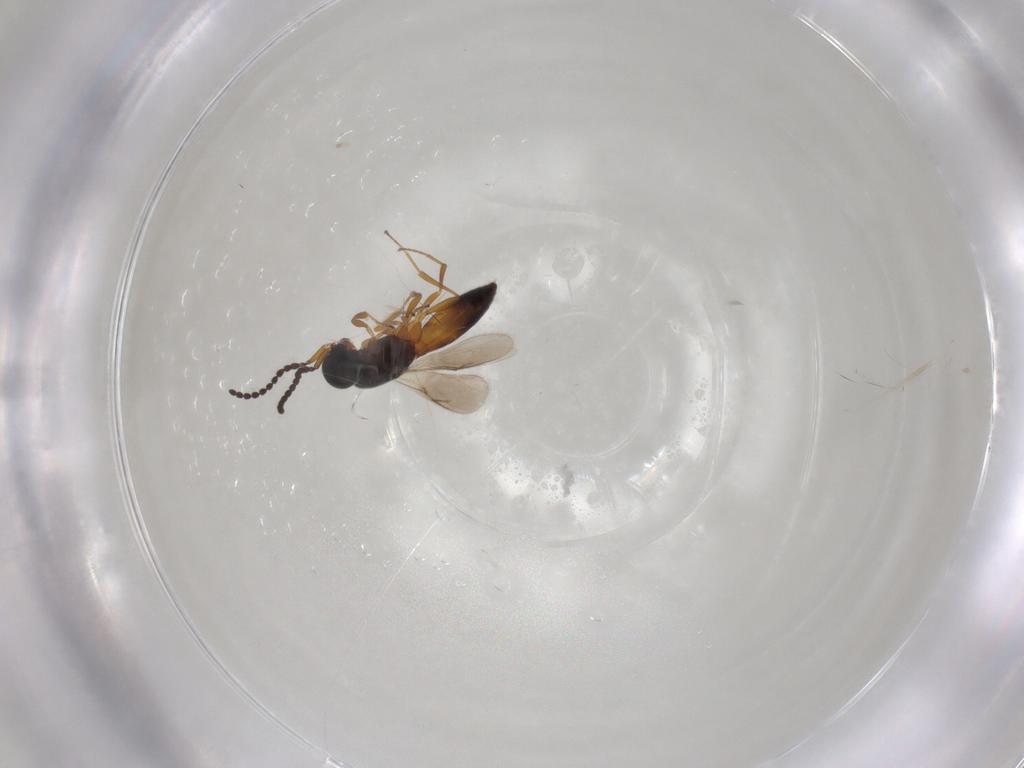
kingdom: Animalia
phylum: Arthropoda
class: Insecta
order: Hymenoptera
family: Scelionidae
